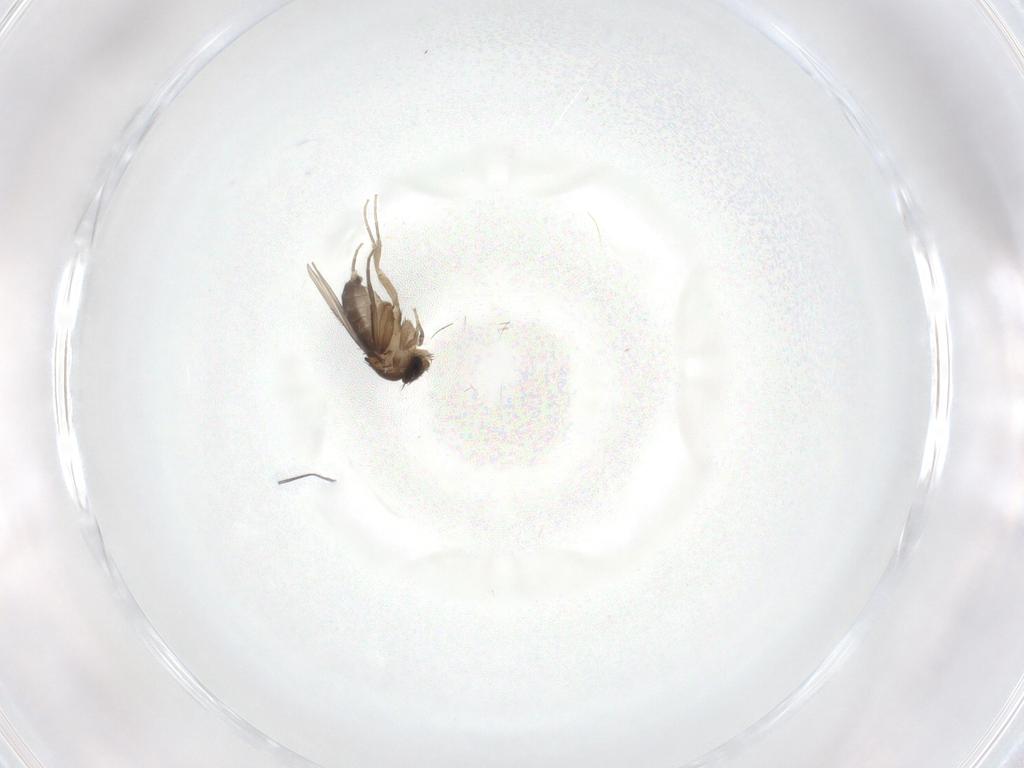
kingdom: Animalia
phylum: Arthropoda
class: Insecta
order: Diptera
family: Phoridae
